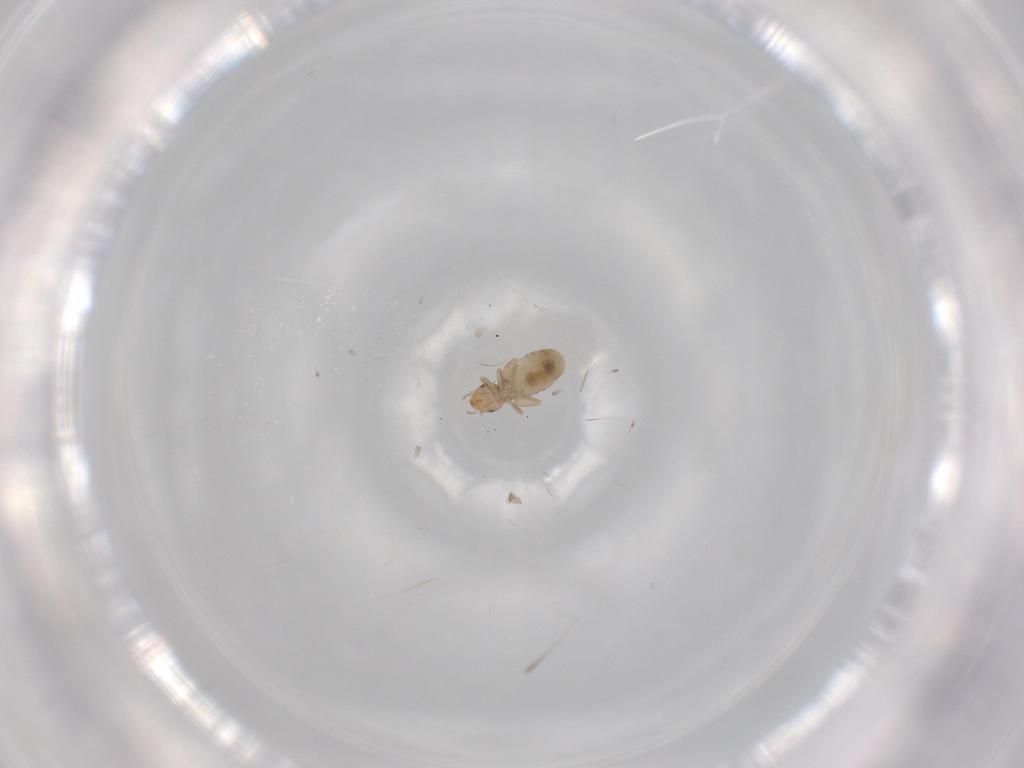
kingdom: Animalia
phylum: Arthropoda
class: Insecta
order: Psocodea
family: Liposcelididae
